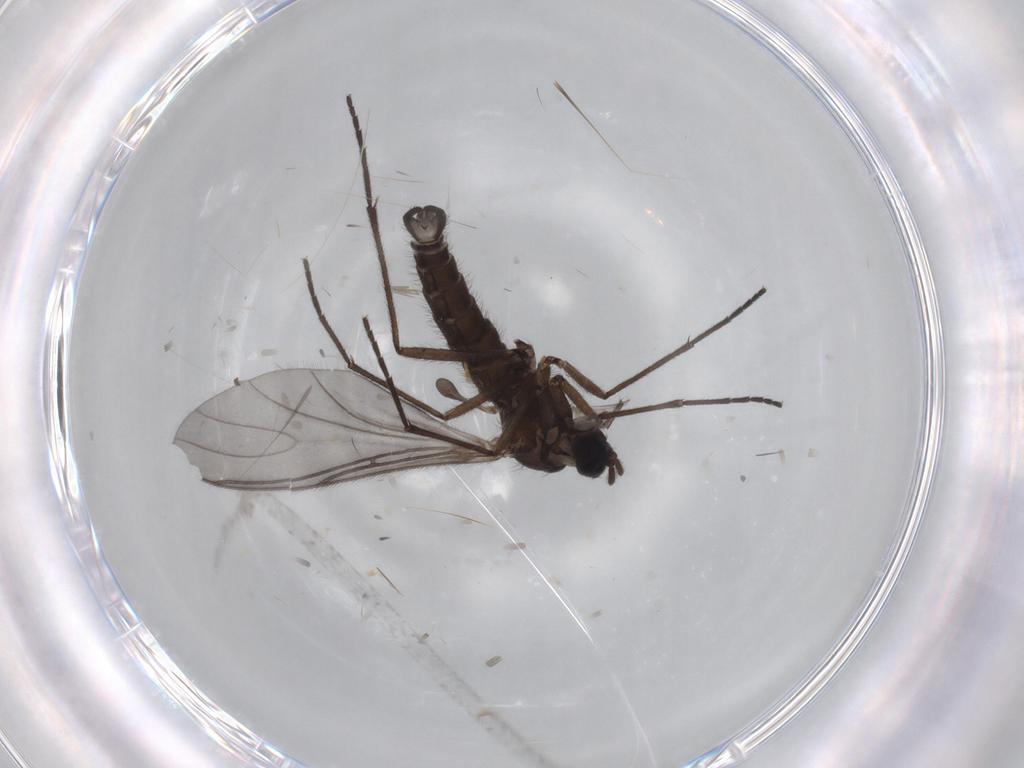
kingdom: Animalia
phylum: Arthropoda
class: Insecta
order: Diptera
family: Sciaridae
